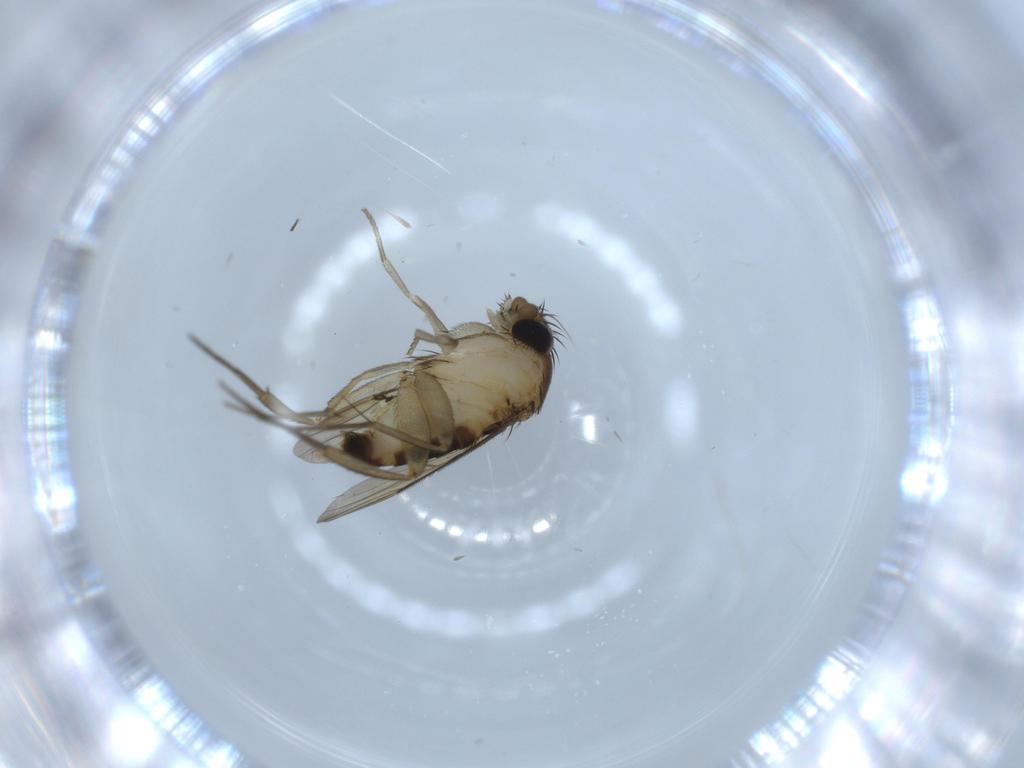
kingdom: Animalia
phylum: Arthropoda
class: Insecta
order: Diptera
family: Chironomidae
